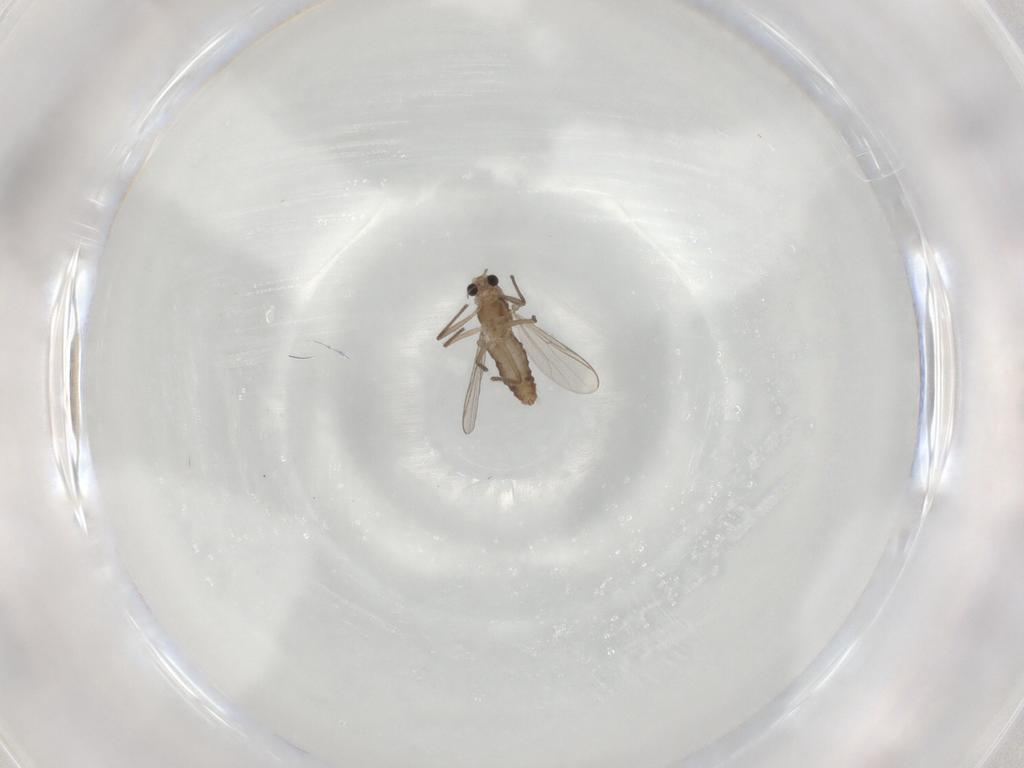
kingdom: Animalia
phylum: Arthropoda
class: Insecta
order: Diptera
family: Chironomidae
